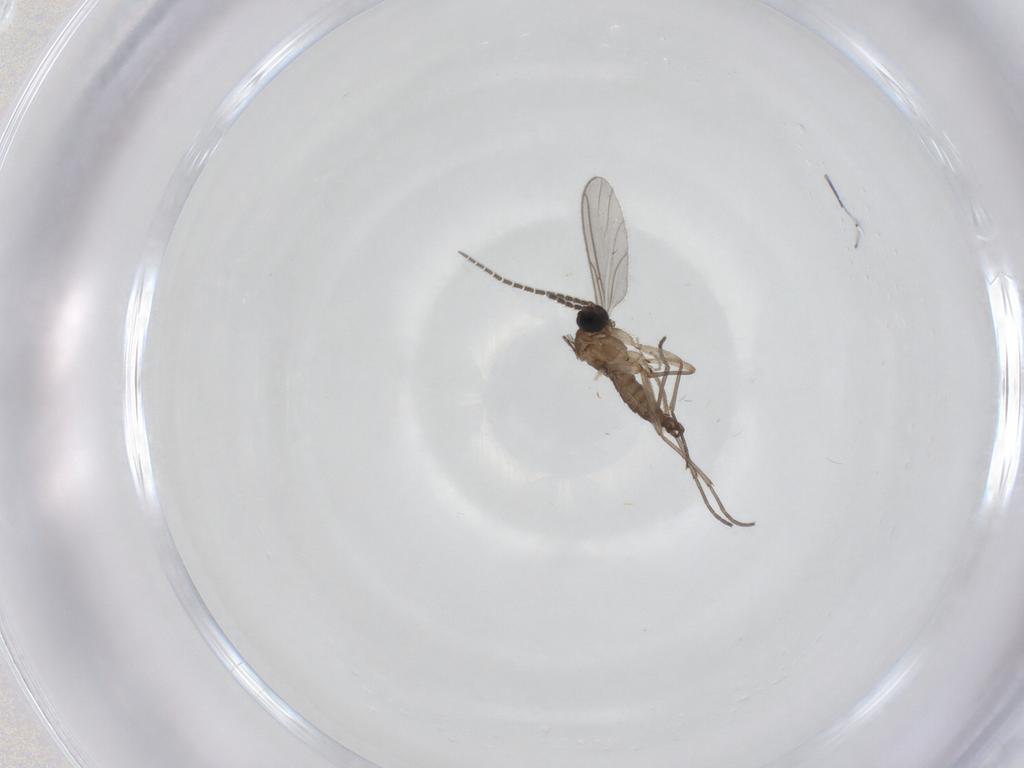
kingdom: Animalia
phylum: Arthropoda
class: Insecta
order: Diptera
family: Sciaridae
